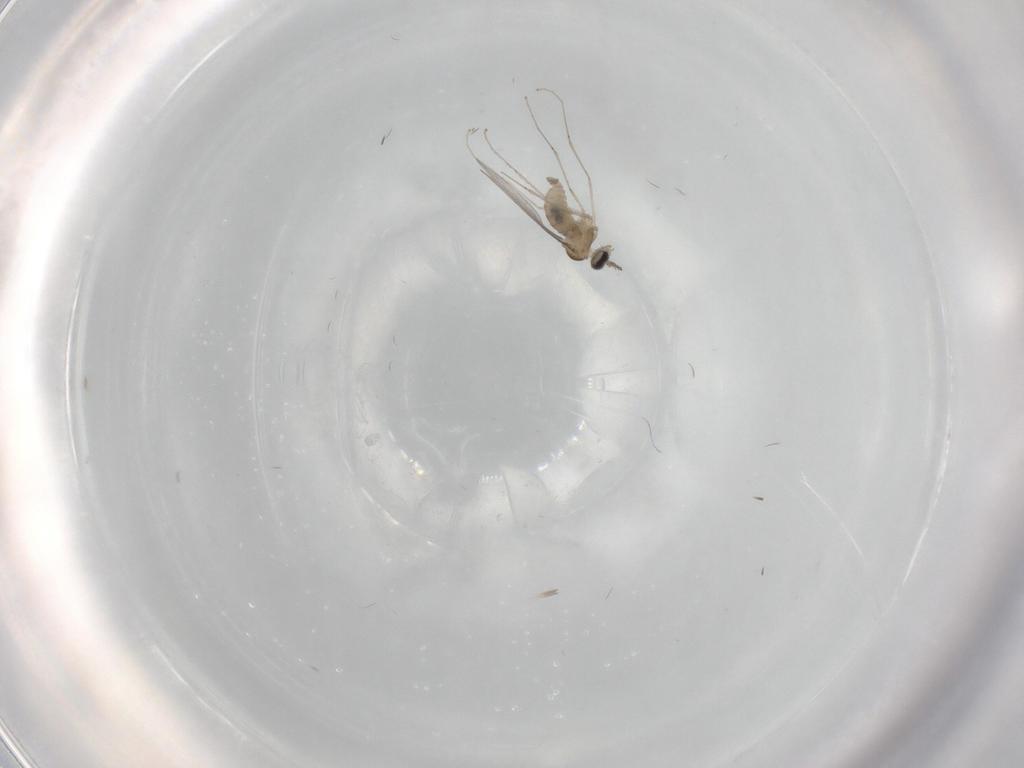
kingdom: Animalia
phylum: Arthropoda
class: Insecta
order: Diptera
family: Cecidomyiidae
